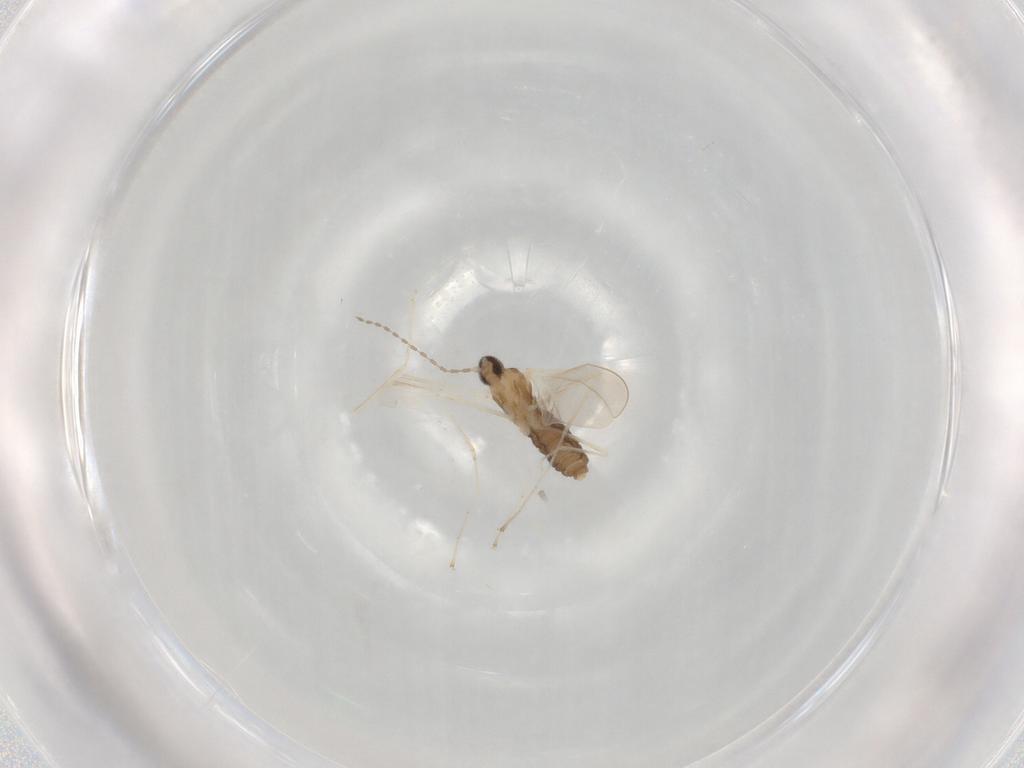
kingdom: Animalia
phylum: Arthropoda
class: Insecta
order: Diptera
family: Cecidomyiidae
